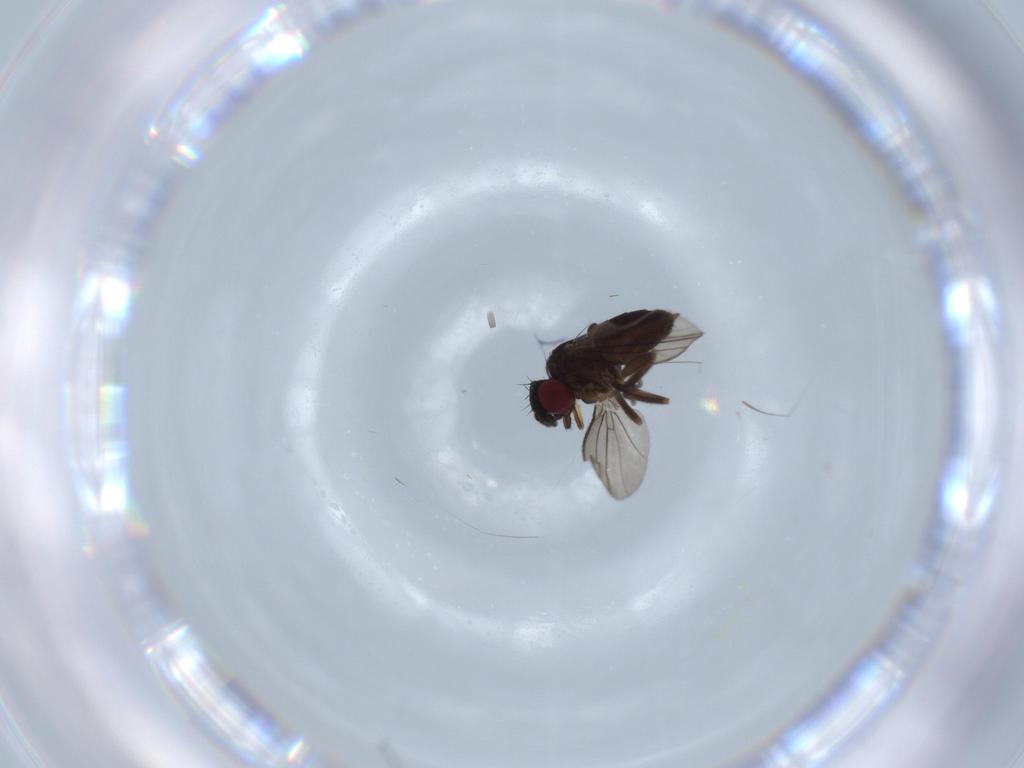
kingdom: Animalia
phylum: Arthropoda
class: Insecta
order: Diptera
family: Milichiidae
